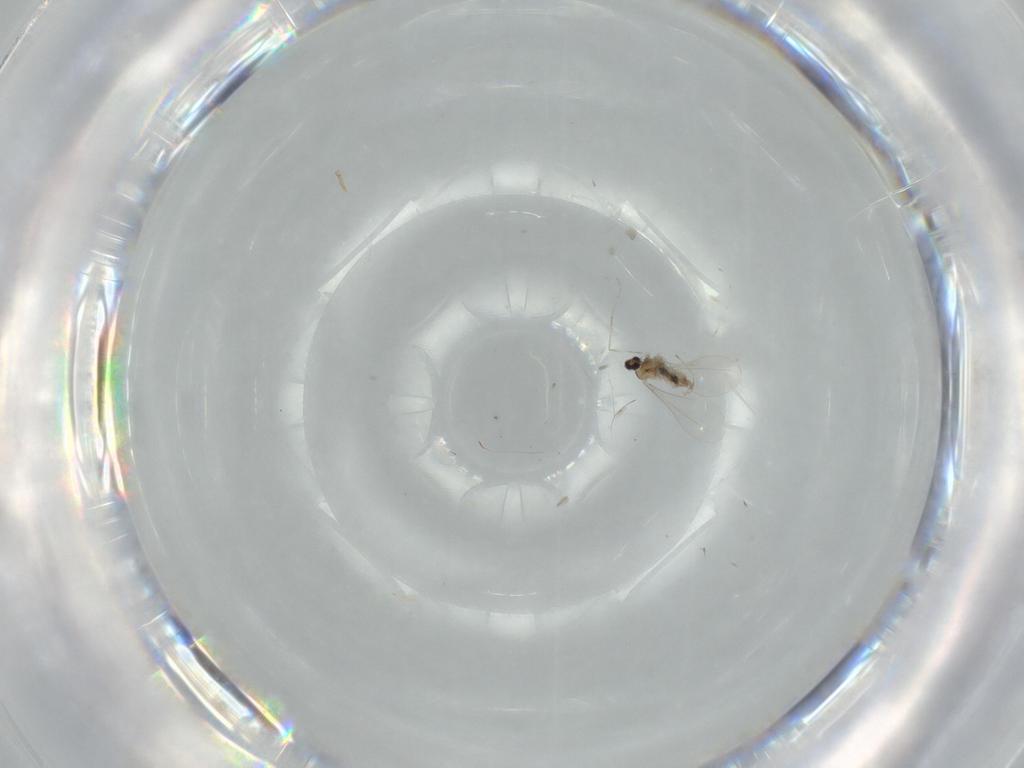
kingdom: Animalia
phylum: Arthropoda
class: Insecta
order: Diptera
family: Cecidomyiidae
